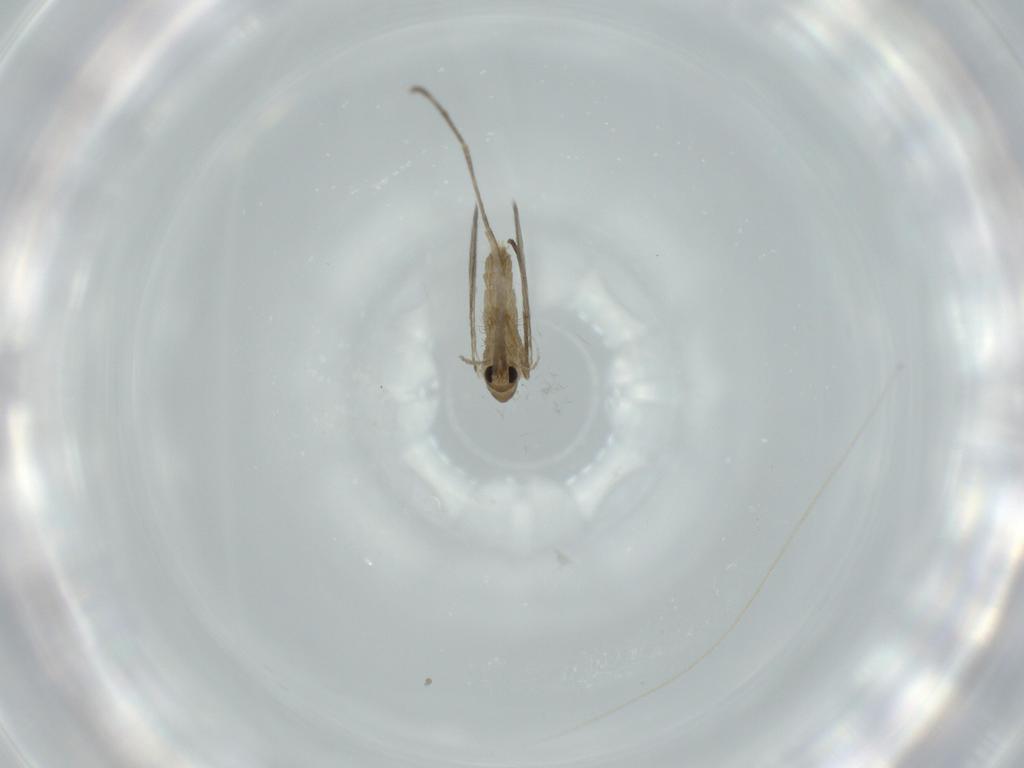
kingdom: Animalia
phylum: Arthropoda
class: Insecta
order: Diptera
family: Psychodidae
